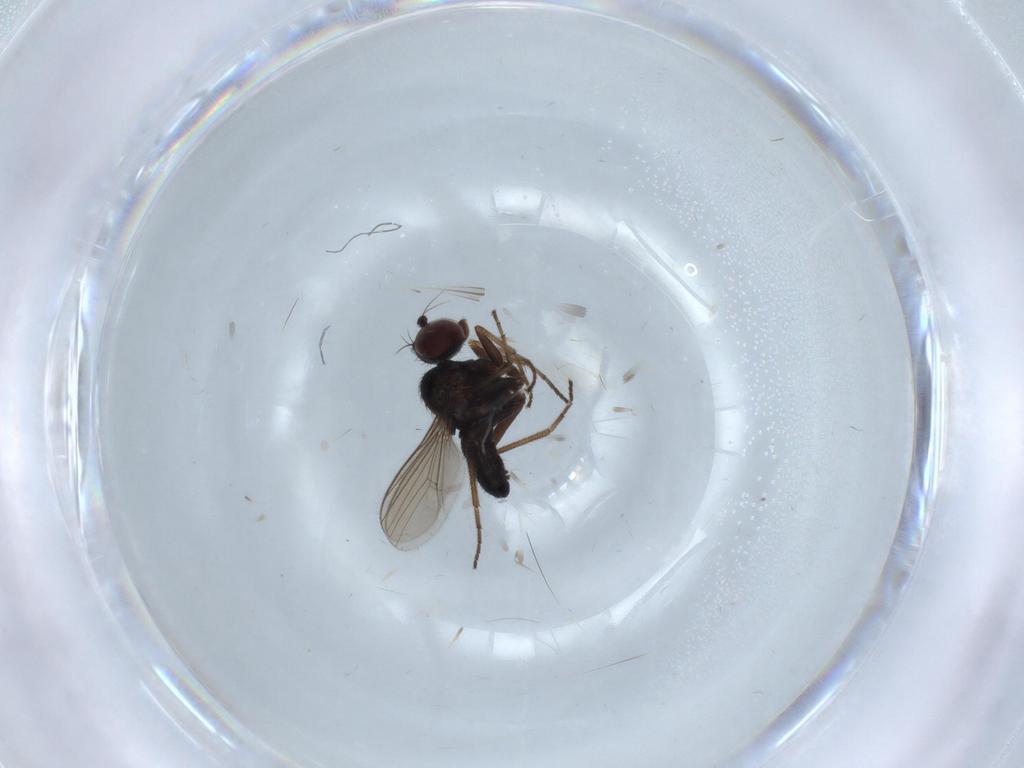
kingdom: Animalia
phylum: Arthropoda
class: Insecta
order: Diptera
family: Dolichopodidae
